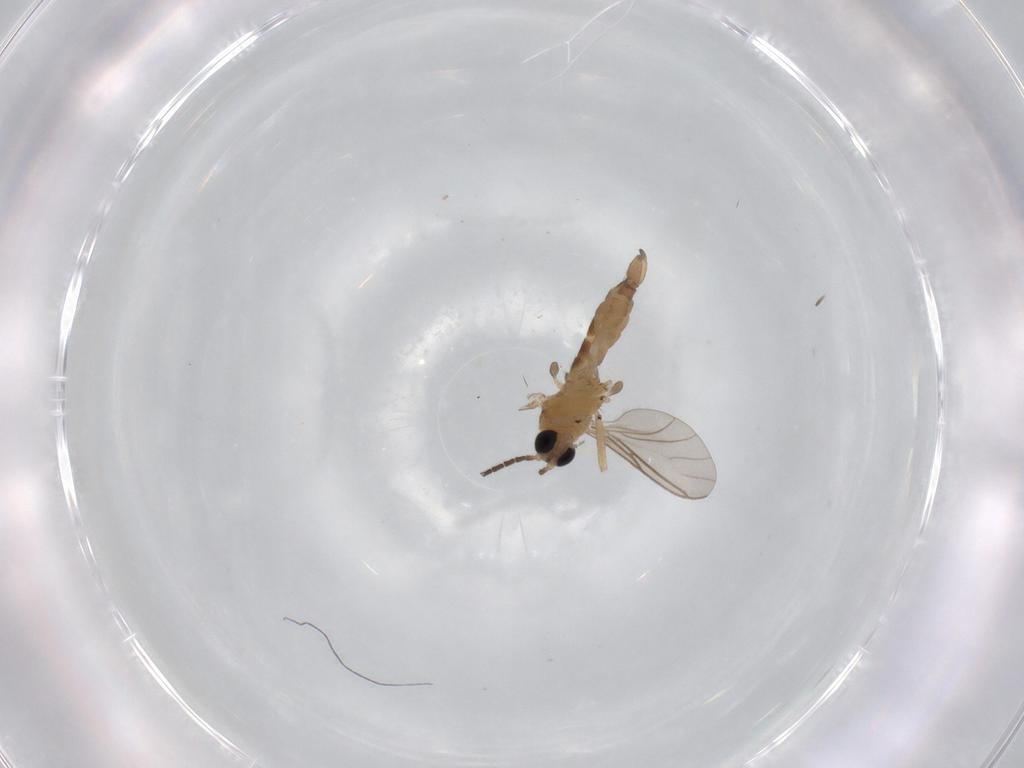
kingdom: Animalia
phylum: Arthropoda
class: Insecta
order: Diptera
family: Sciaridae
